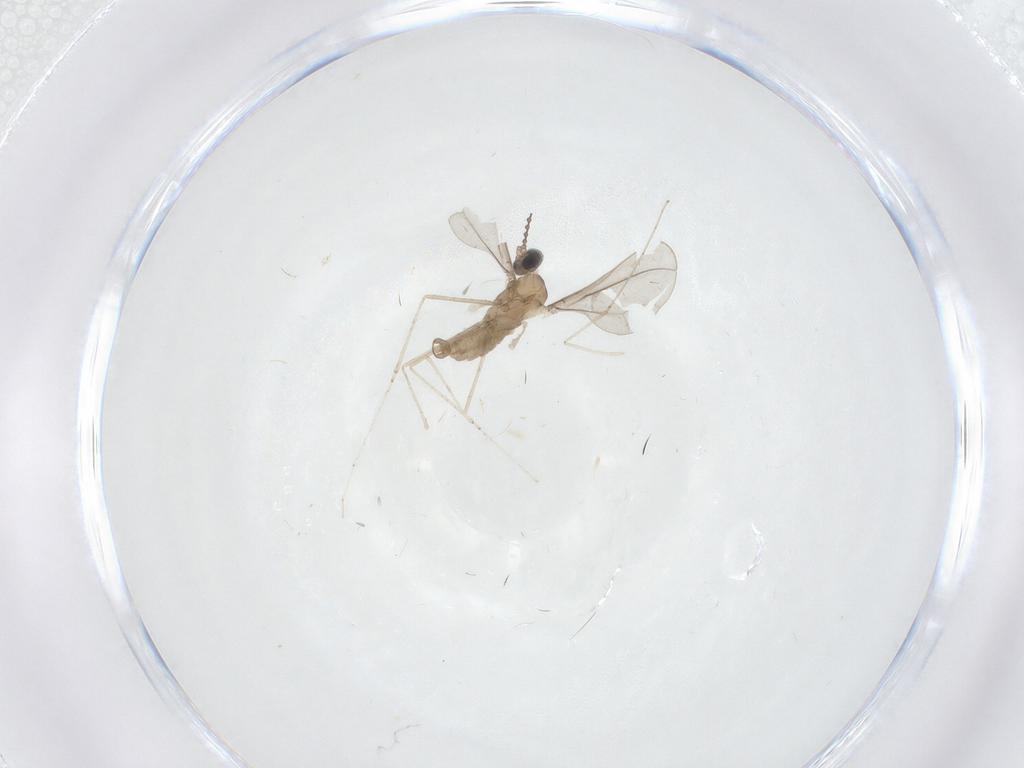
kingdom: Animalia
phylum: Arthropoda
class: Insecta
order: Diptera
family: Cecidomyiidae
